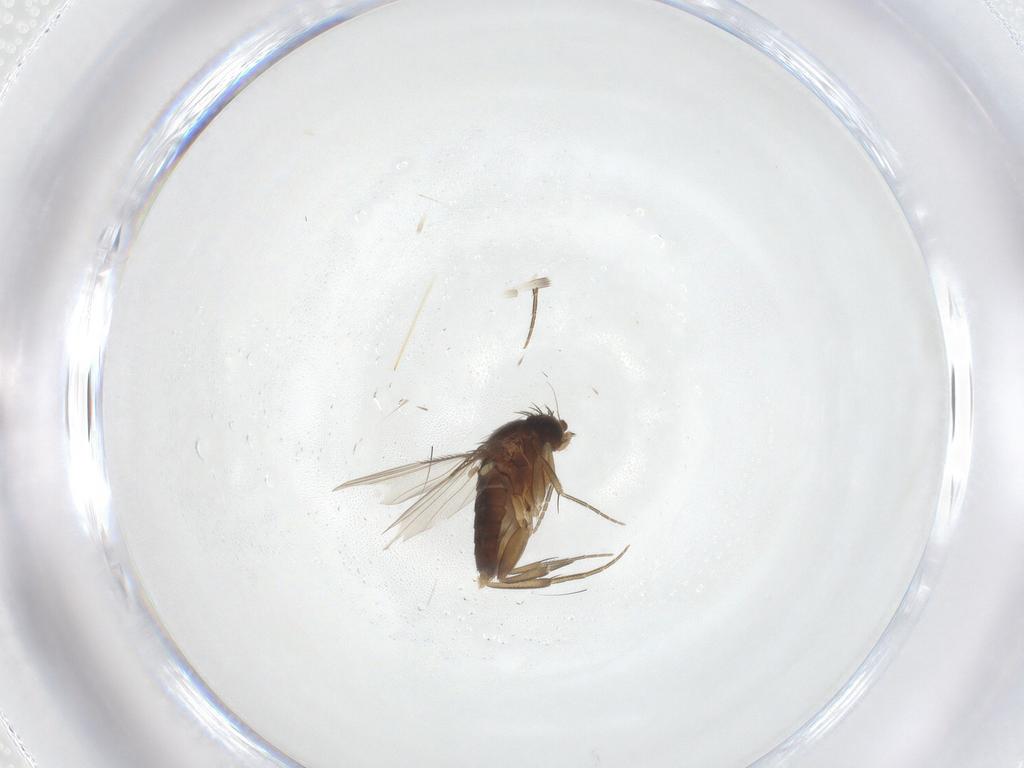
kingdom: Animalia
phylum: Arthropoda
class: Insecta
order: Diptera
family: Phoridae
